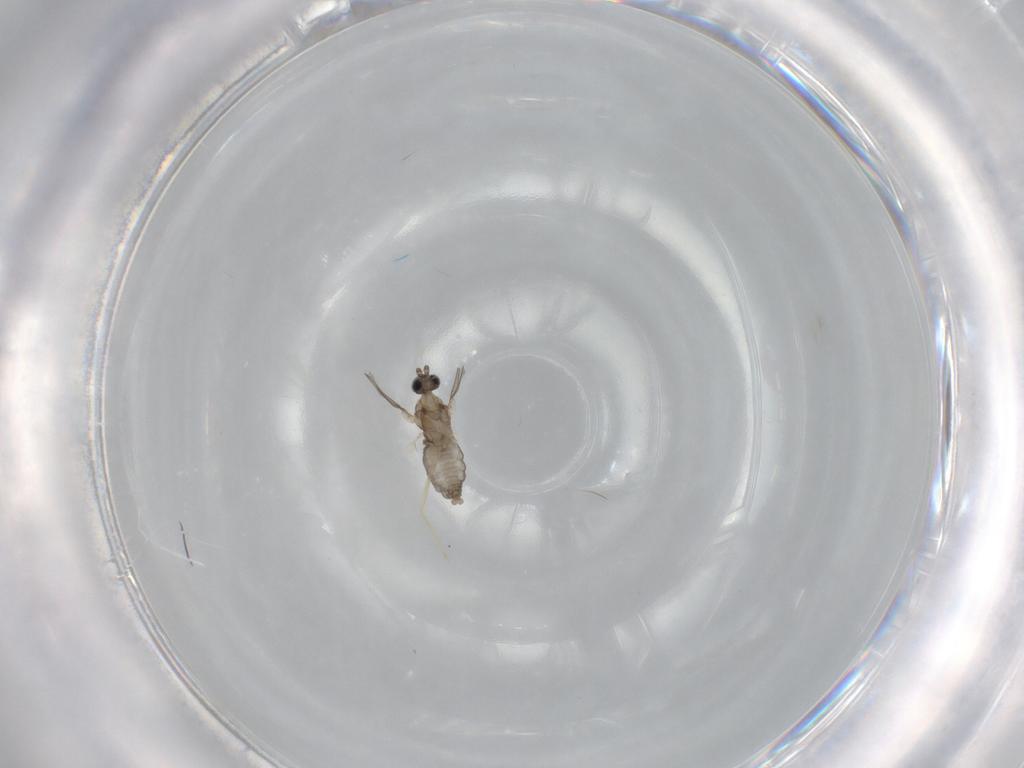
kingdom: Animalia
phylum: Arthropoda
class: Insecta
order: Diptera
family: Cecidomyiidae
